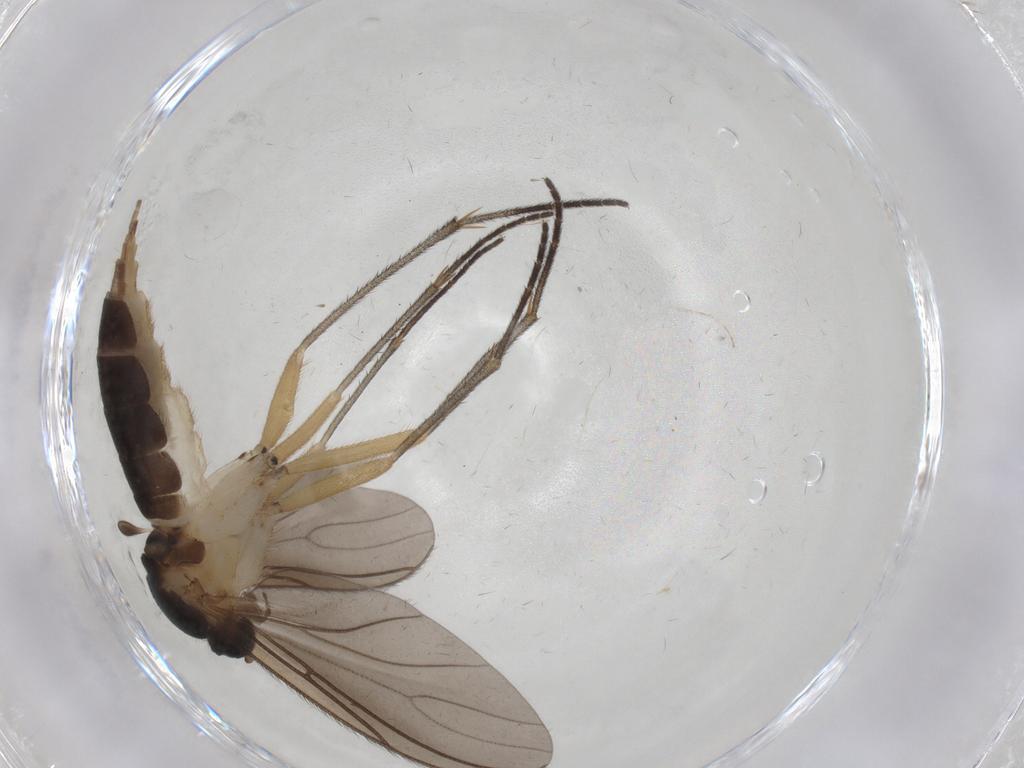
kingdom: Animalia
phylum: Arthropoda
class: Insecta
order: Diptera
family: Sciaridae
